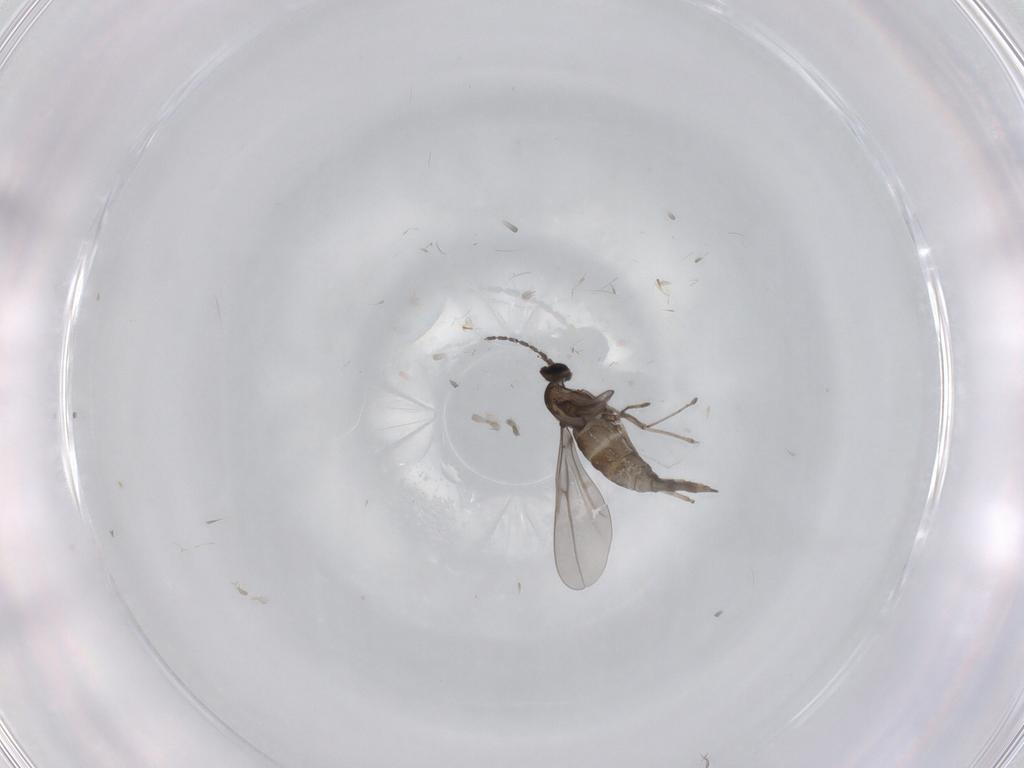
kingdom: Animalia
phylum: Arthropoda
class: Insecta
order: Diptera
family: Cecidomyiidae
